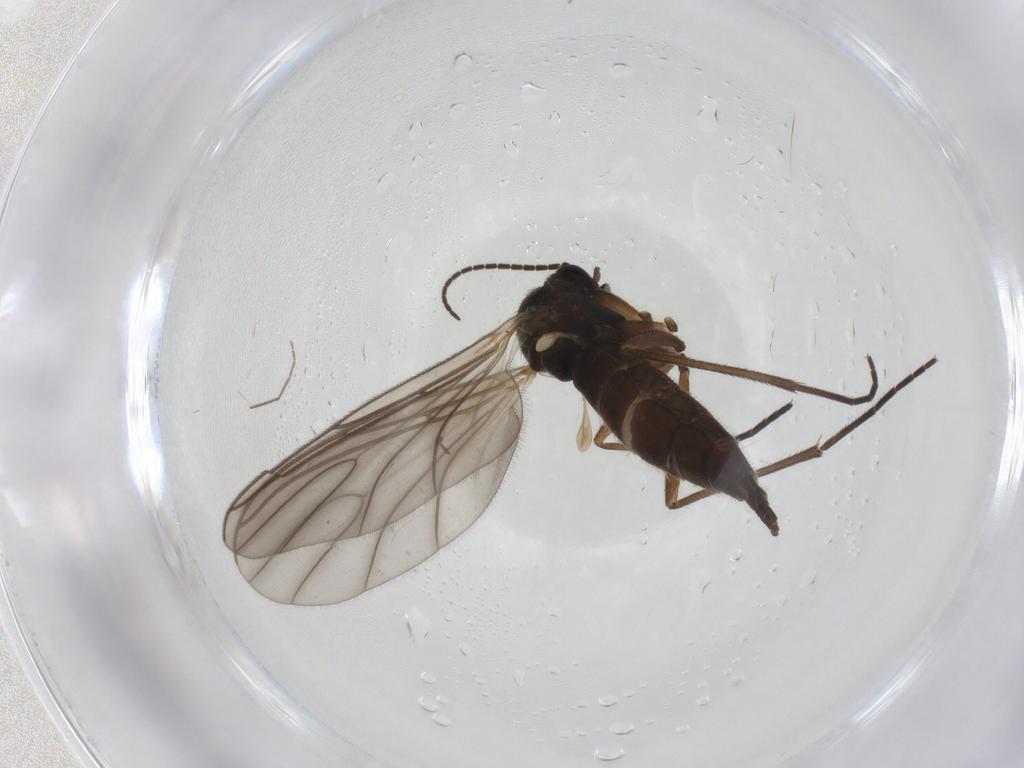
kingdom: Animalia
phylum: Arthropoda
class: Insecta
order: Diptera
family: Sciaridae
